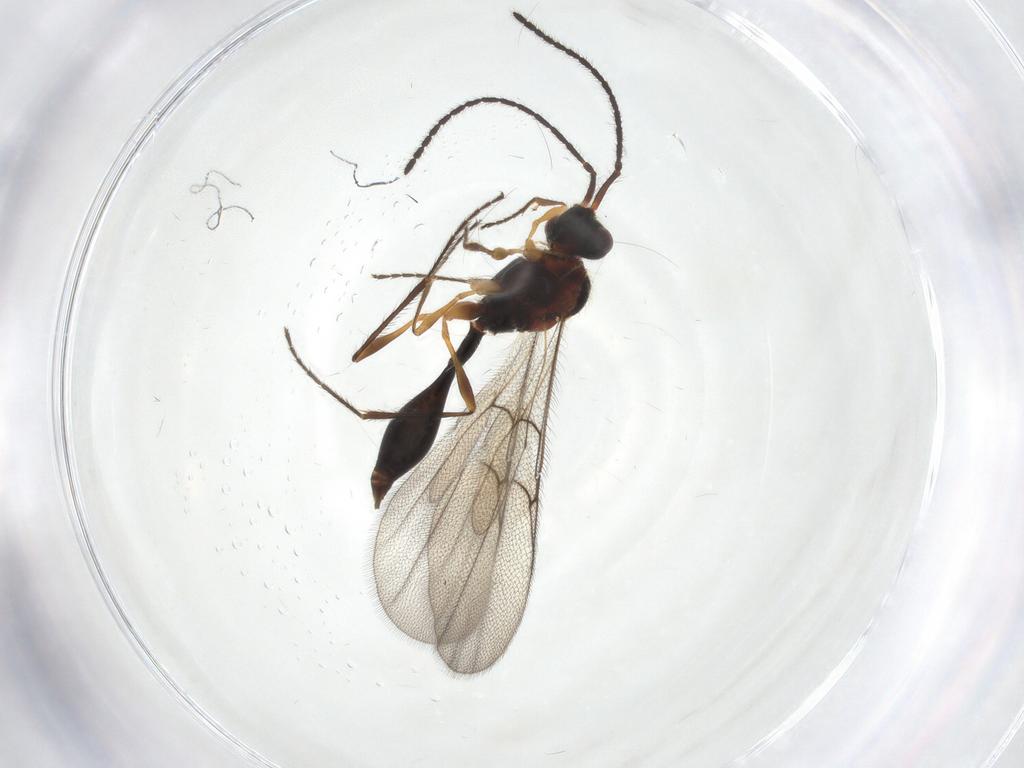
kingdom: Animalia
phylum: Arthropoda
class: Insecta
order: Hymenoptera
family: Diapriidae
